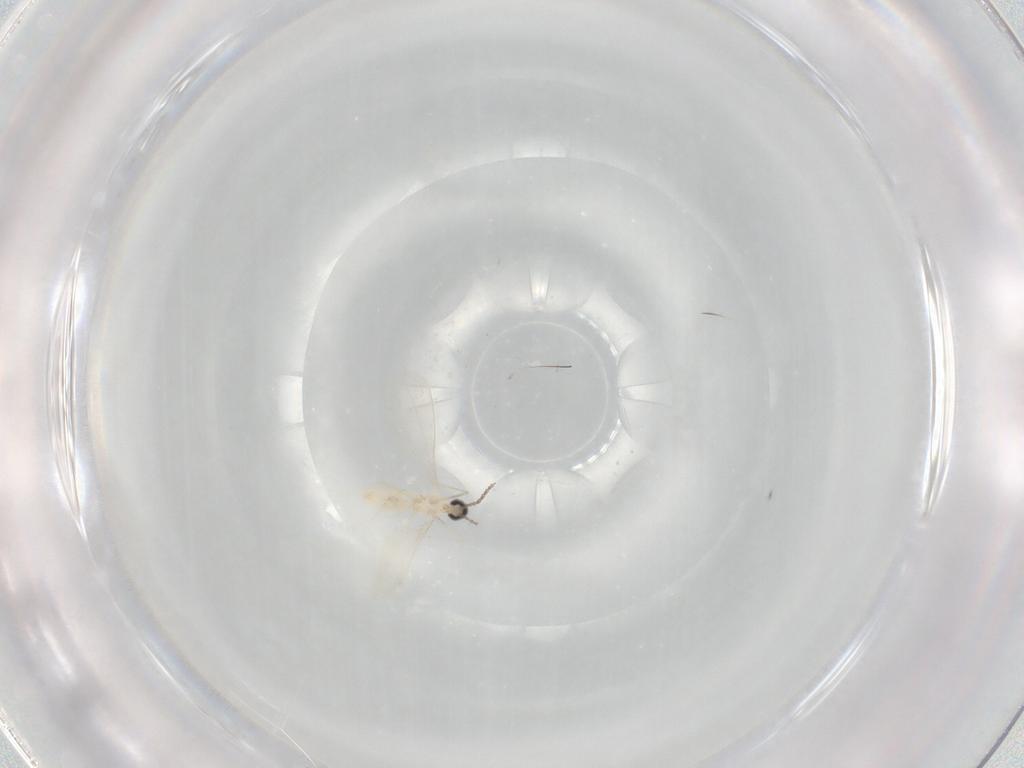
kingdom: Animalia
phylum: Arthropoda
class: Insecta
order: Diptera
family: Cecidomyiidae
